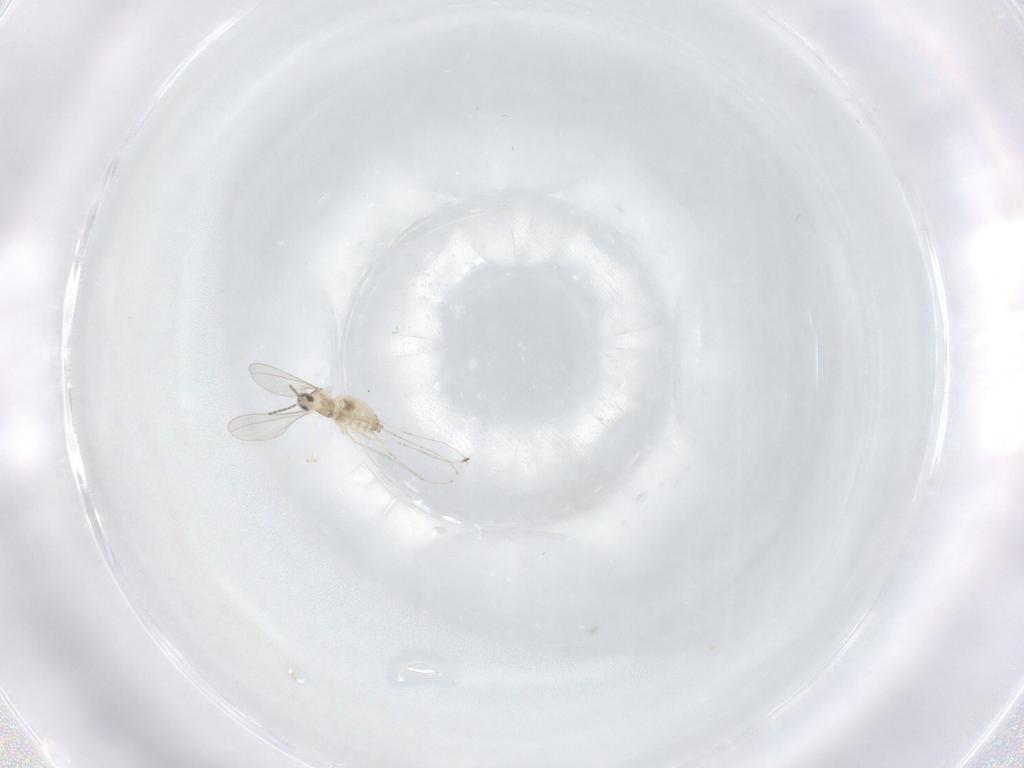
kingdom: Animalia
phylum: Arthropoda
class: Insecta
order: Diptera
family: Cecidomyiidae
